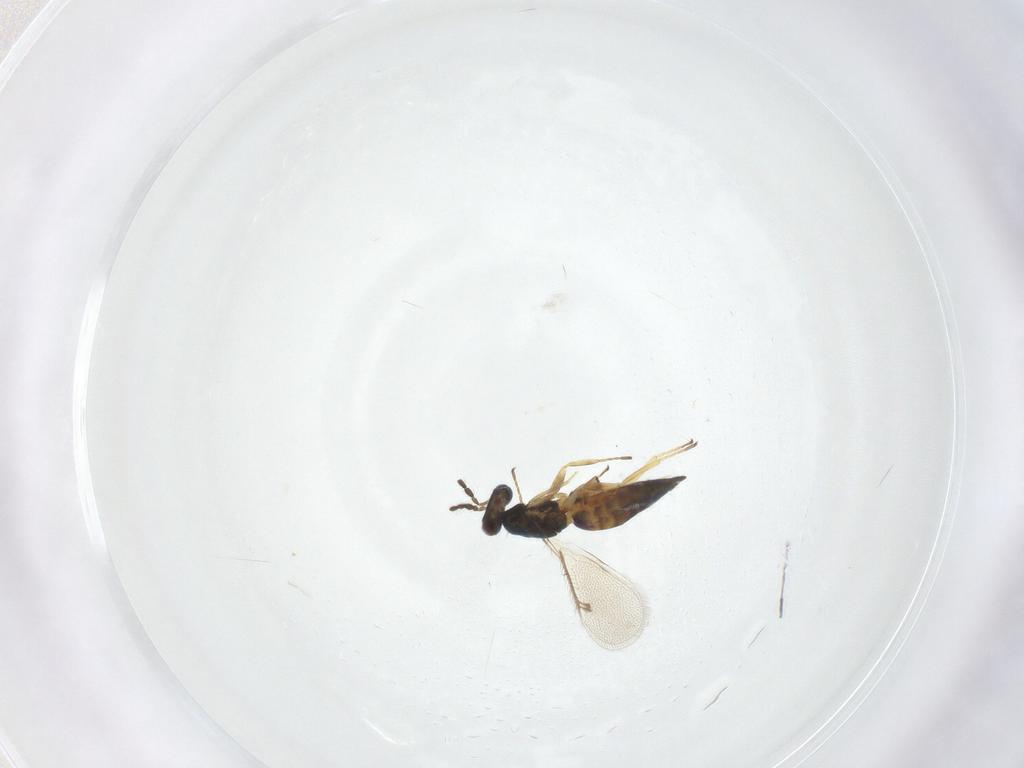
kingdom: Animalia
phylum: Arthropoda
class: Insecta
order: Hymenoptera
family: Eulophidae
